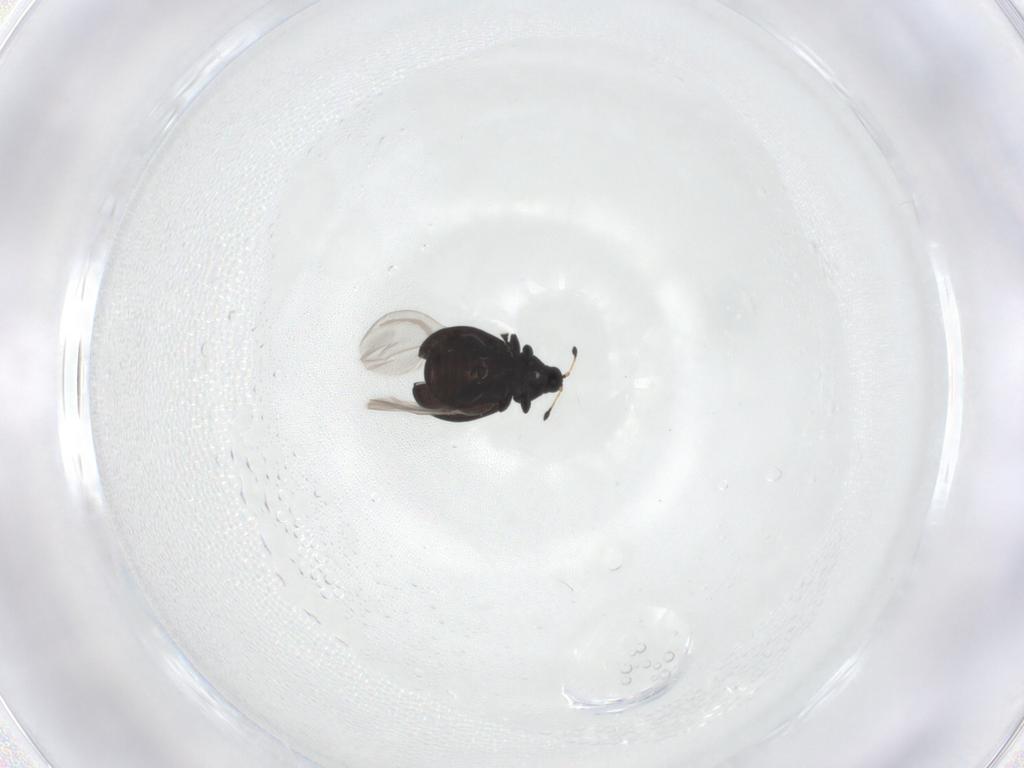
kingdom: Animalia
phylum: Arthropoda
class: Insecta
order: Coleoptera
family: Curculionidae
